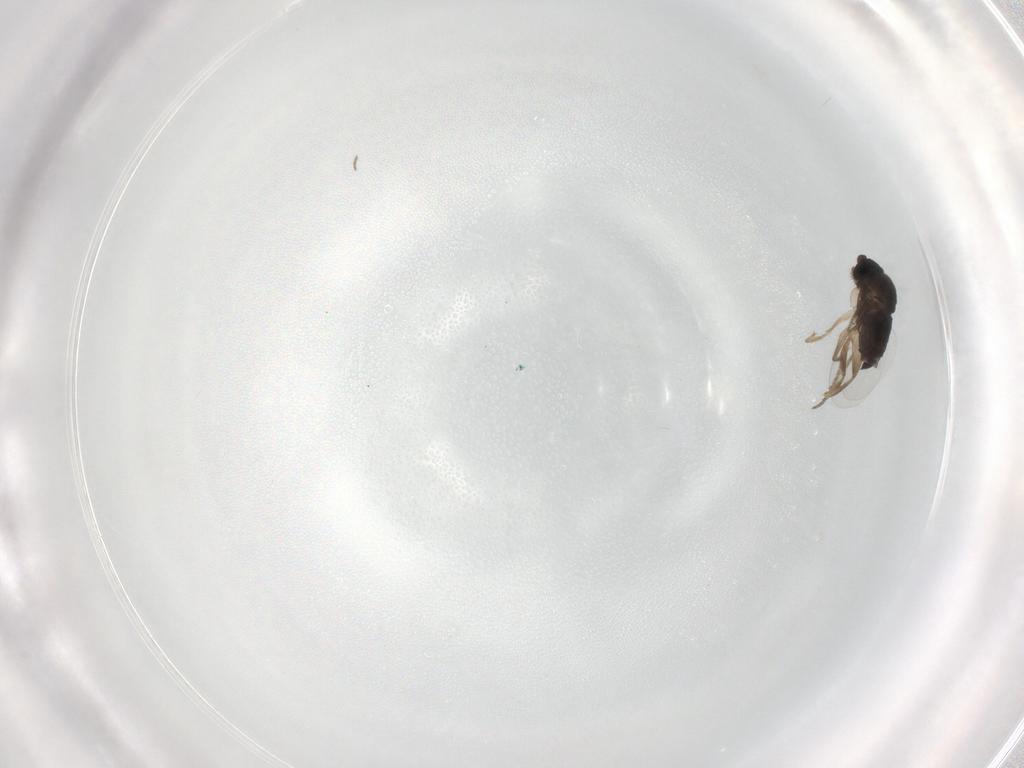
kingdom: Animalia
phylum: Arthropoda
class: Insecta
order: Diptera
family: Phoridae
